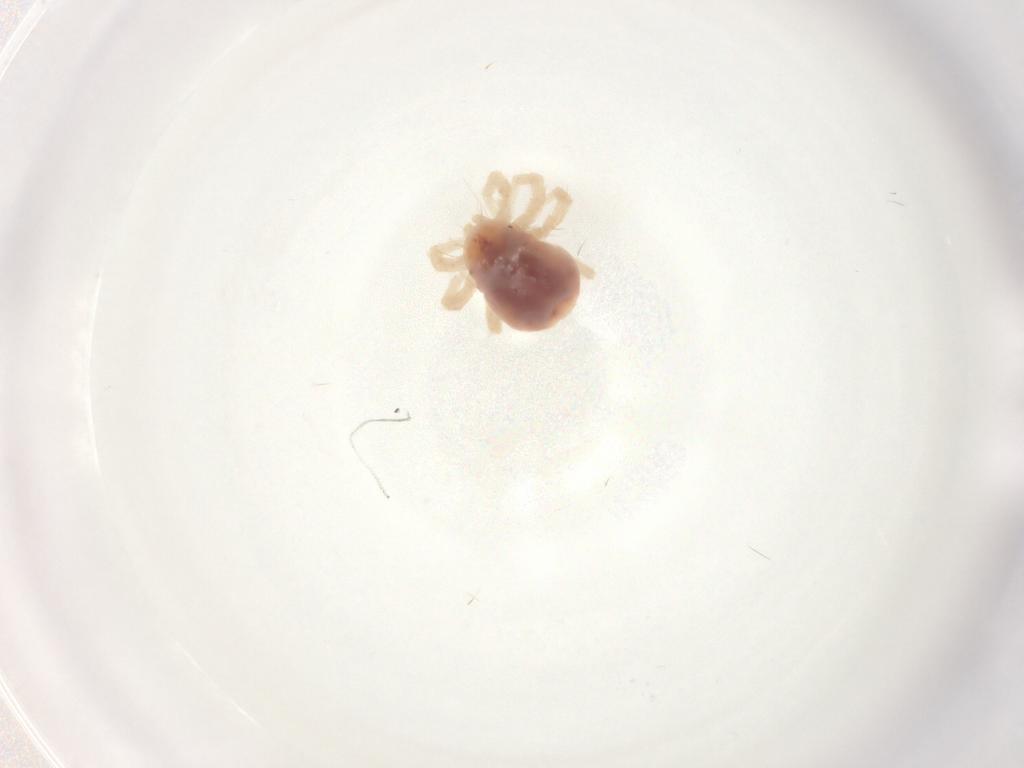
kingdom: Animalia
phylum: Arthropoda
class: Arachnida
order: Trombidiformes
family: Anystidae
